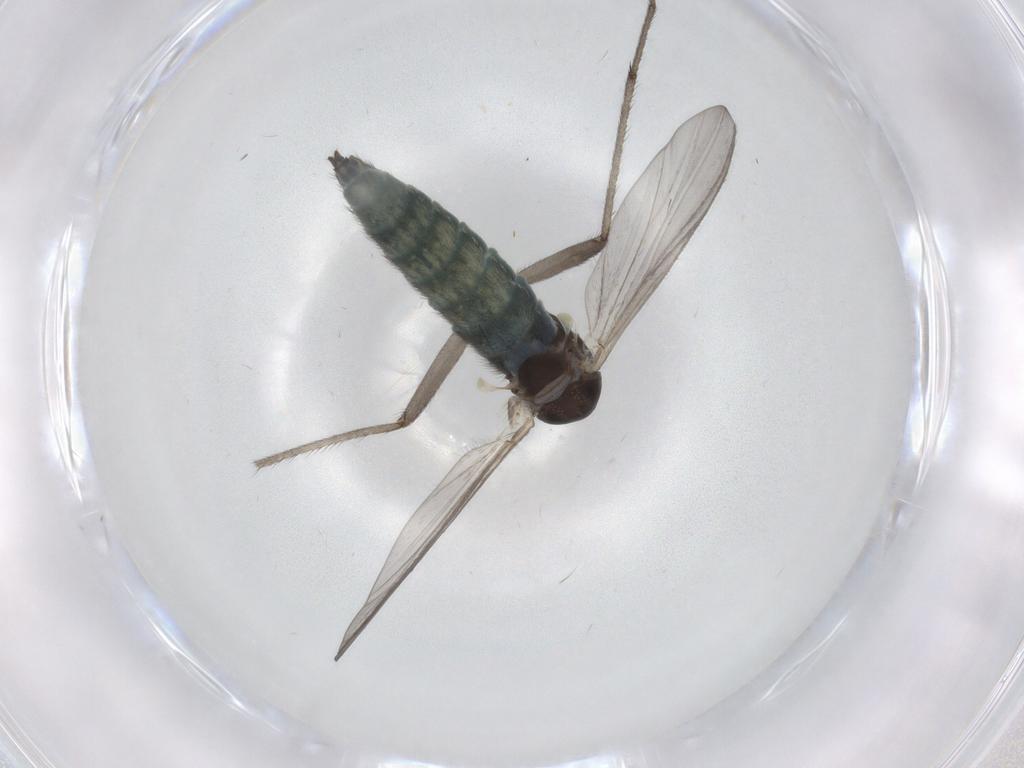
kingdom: Animalia
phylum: Arthropoda
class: Insecta
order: Diptera
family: Chironomidae
